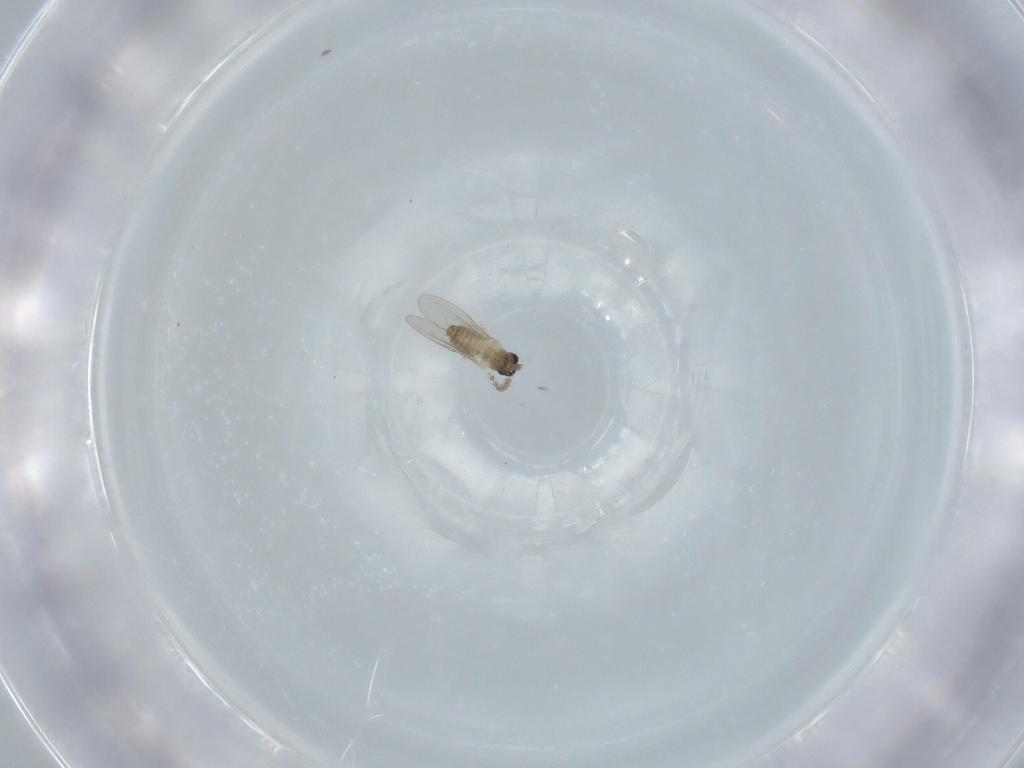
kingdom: Animalia
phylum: Arthropoda
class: Insecta
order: Diptera
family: Cecidomyiidae
